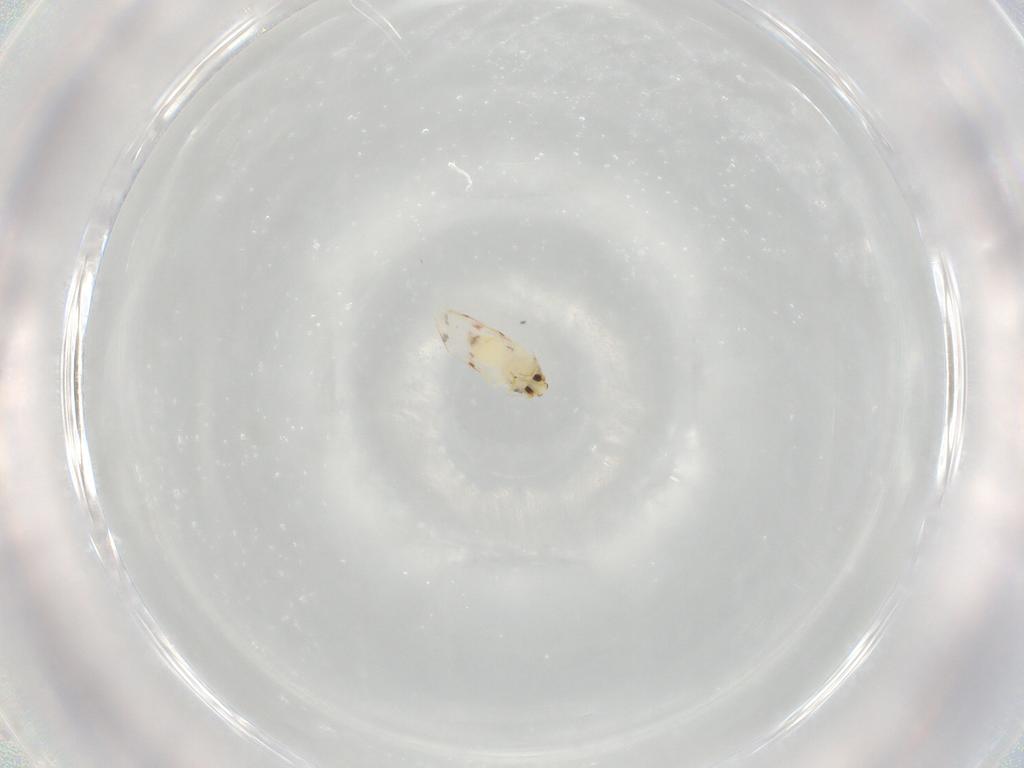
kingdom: Animalia
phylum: Arthropoda
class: Insecta
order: Hemiptera
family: Aleyrodidae
